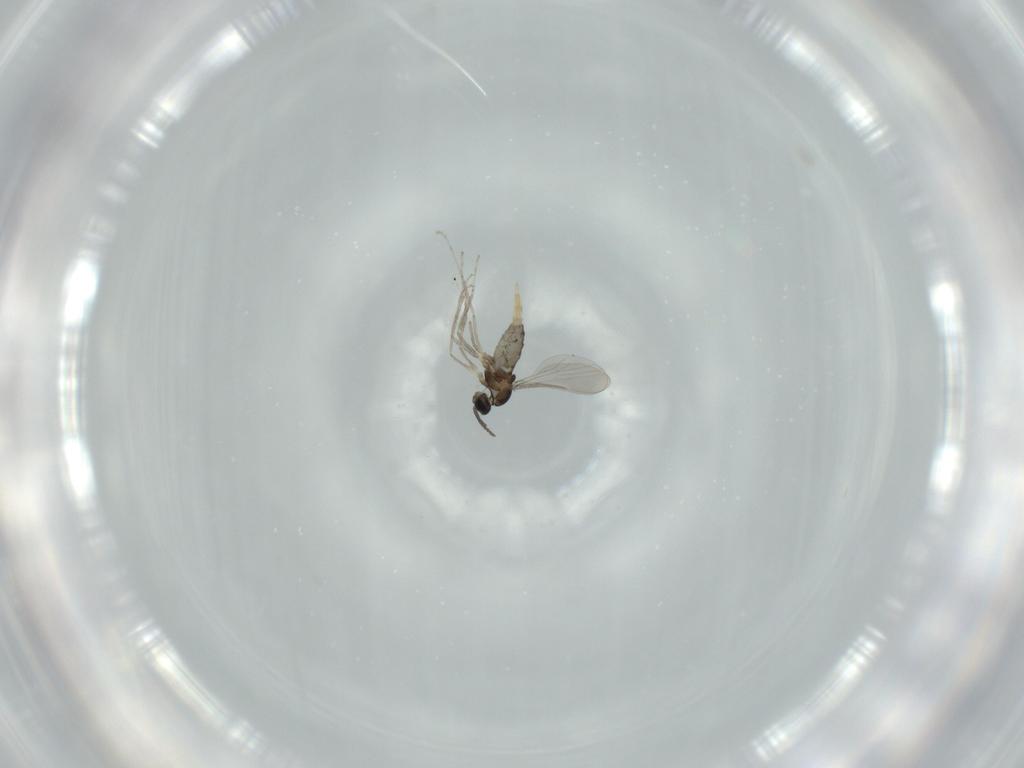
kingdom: Animalia
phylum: Arthropoda
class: Insecta
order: Diptera
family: Cecidomyiidae
